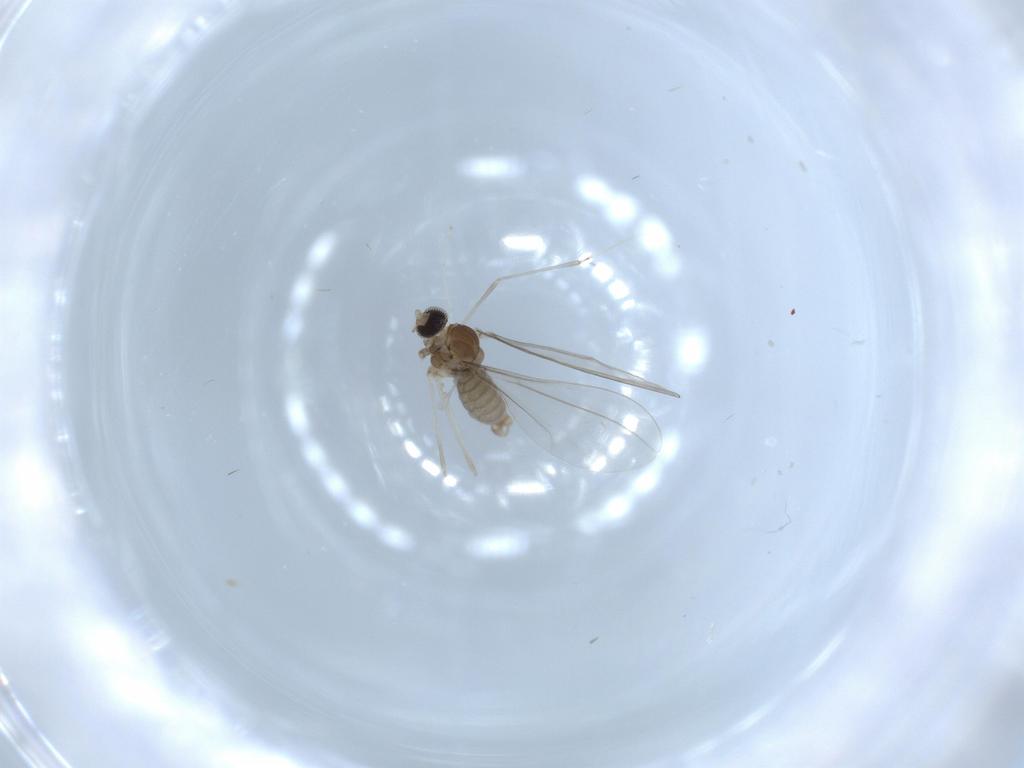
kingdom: Animalia
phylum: Arthropoda
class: Insecta
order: Diptera
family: Cecidomyiidae
